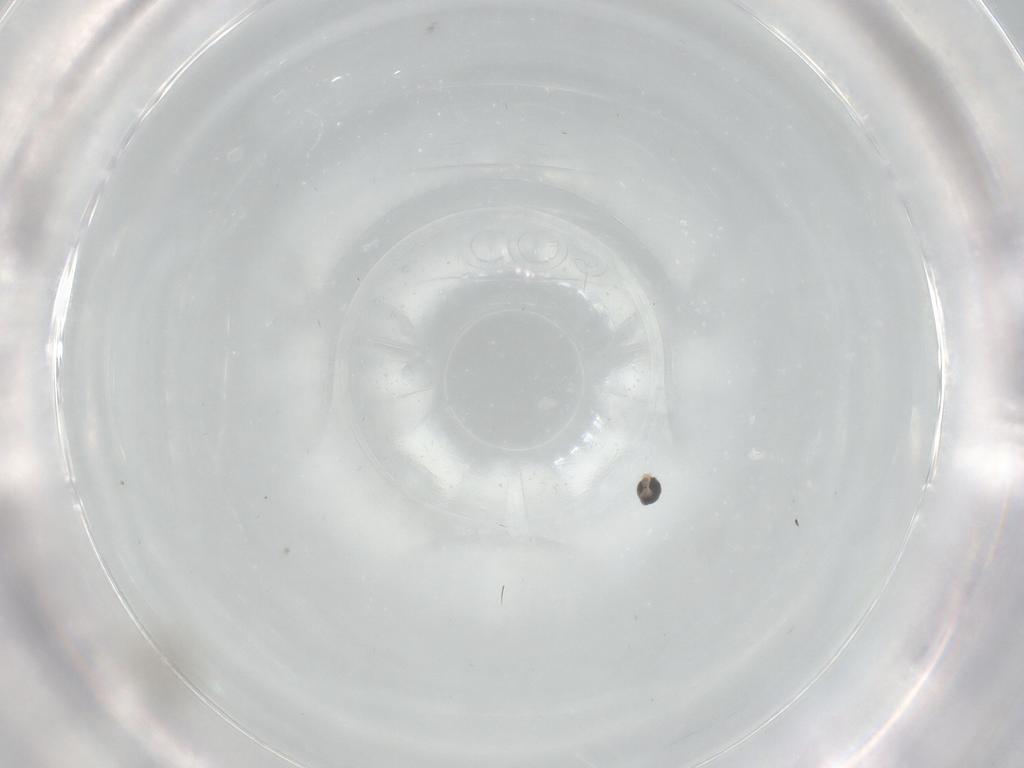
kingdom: Animalia
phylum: Arthropoda
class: Insecta
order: Diptera
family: Cecidomyiidae
